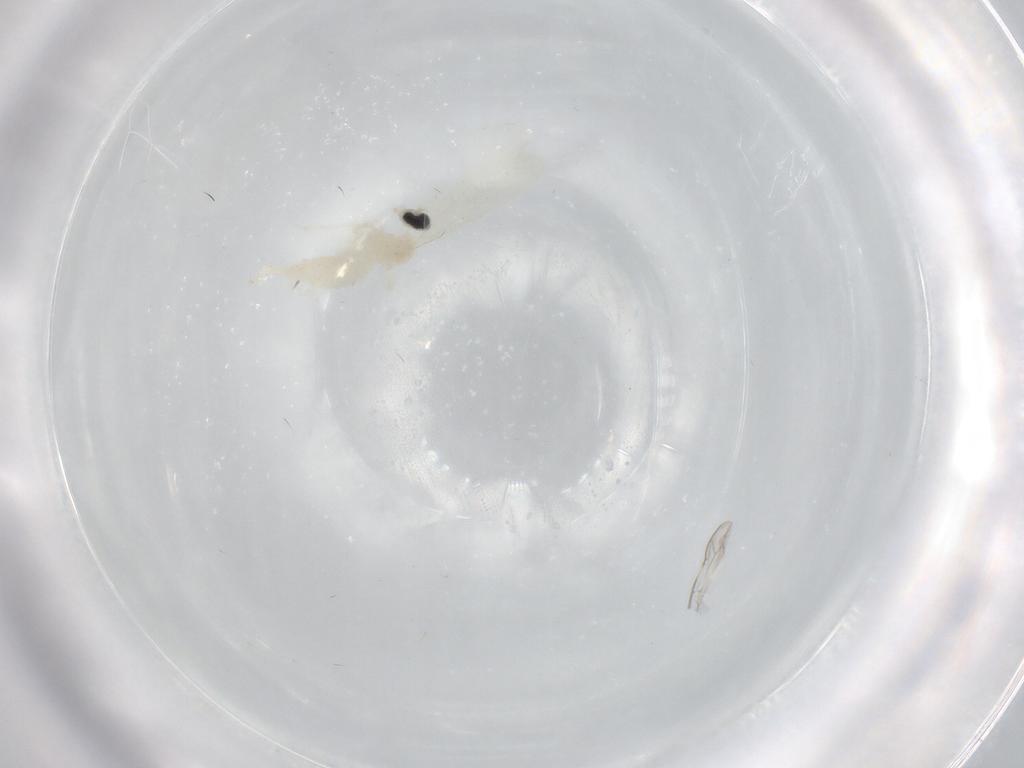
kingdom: Animalia
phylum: Arthropoda
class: Insecta
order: Diptera
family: Cecidomyiidae
